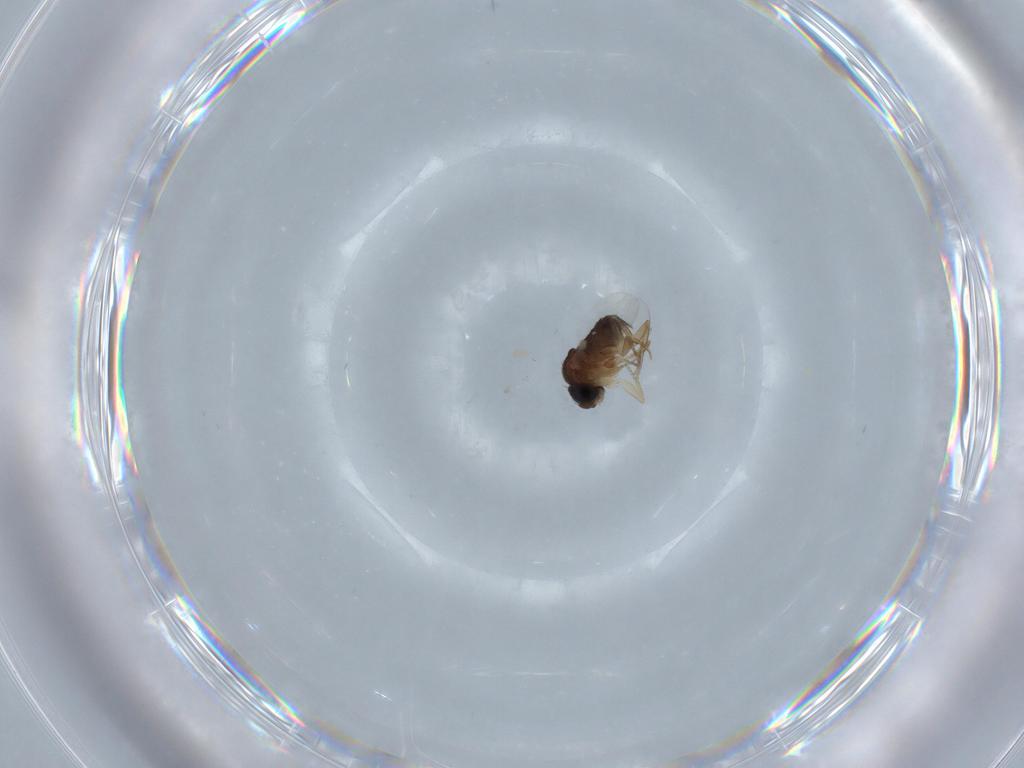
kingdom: Animalia
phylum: Arthropoda
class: Insecta
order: Diptera
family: Phoridae
